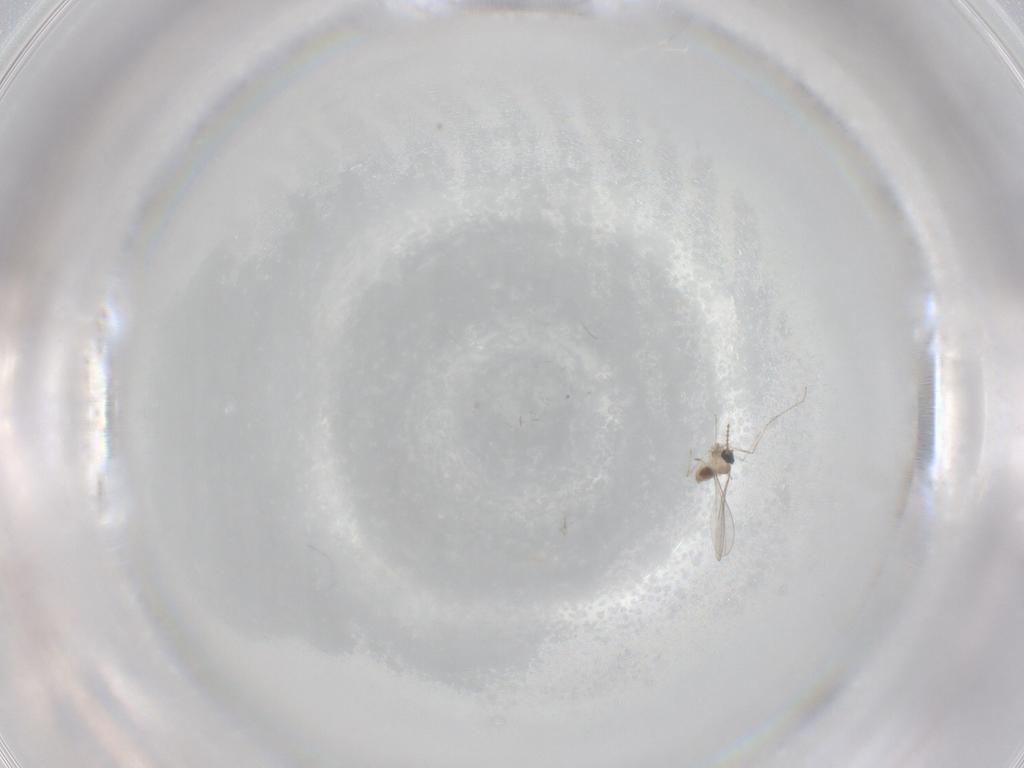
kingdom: Animalia
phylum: Arthropoda
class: Insecta
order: Diptera
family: Cecidomyiidae
